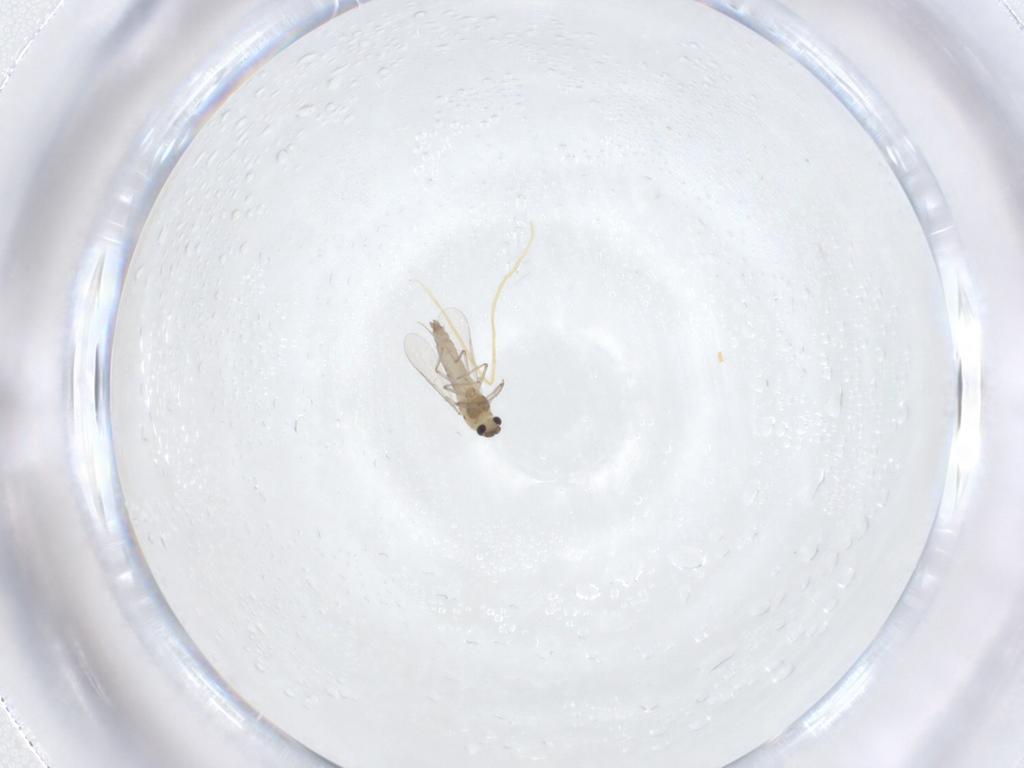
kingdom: Animalia
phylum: Arthropoda
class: Insecta
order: Diptera
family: Chironomidae
